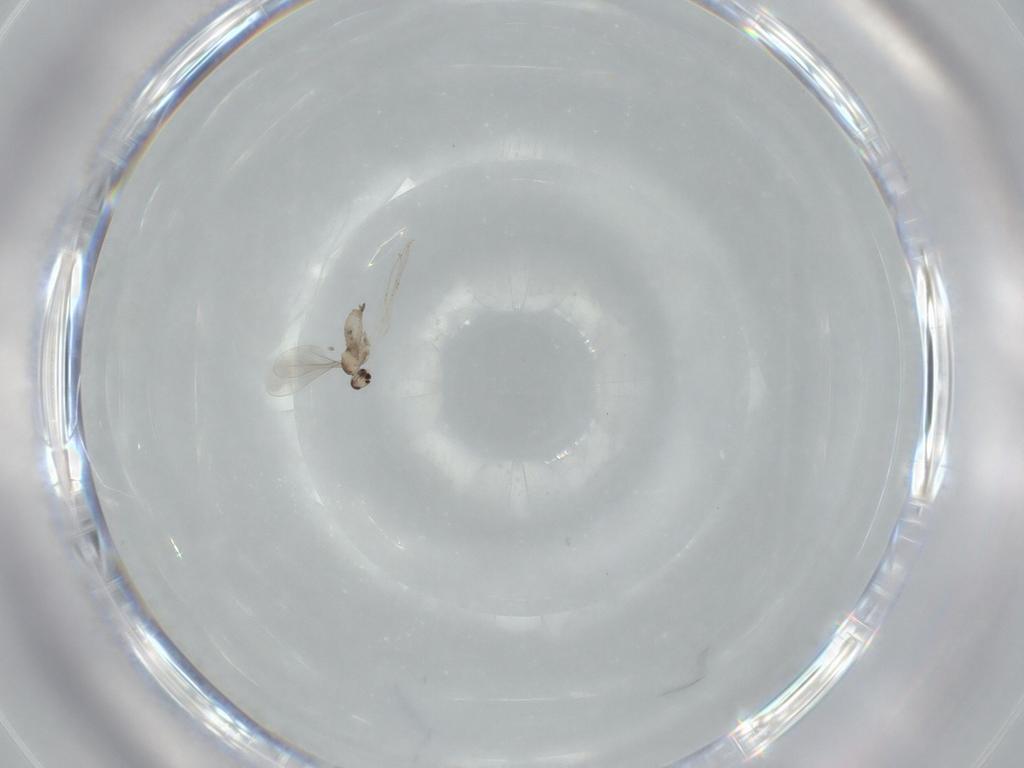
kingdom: Animalia
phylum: Arthropoda
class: Insecta
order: Diptera
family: Cecidomyiidae
